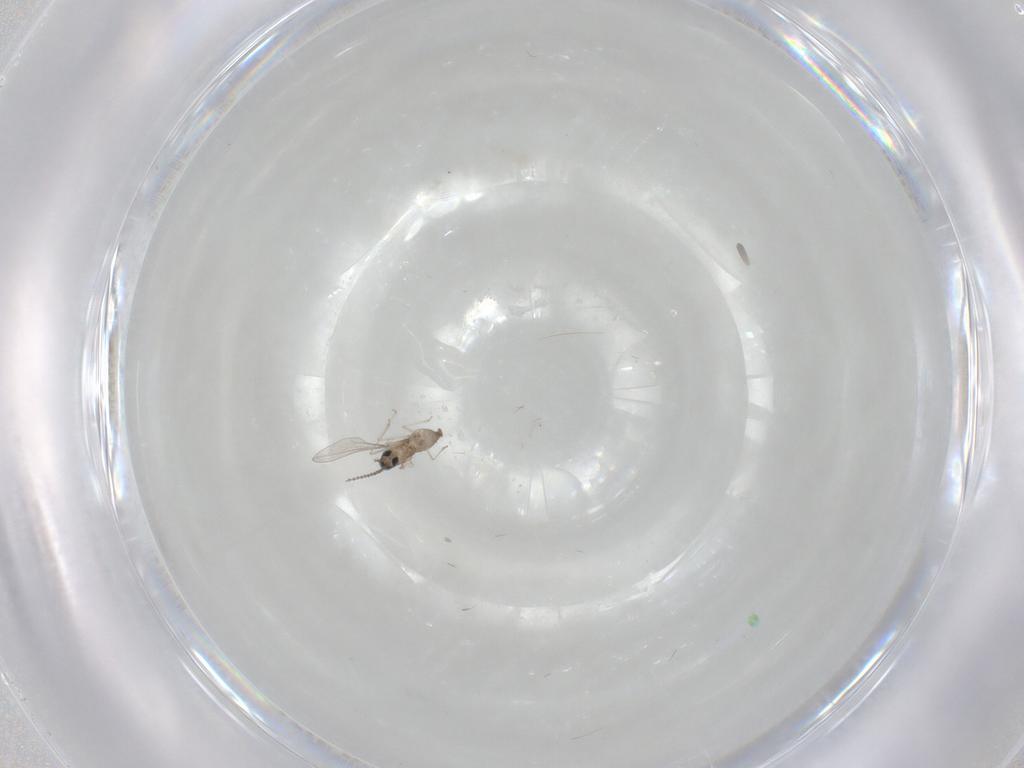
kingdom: Animalia
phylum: Arthropoda
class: Insecta
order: Diptera
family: Cecidomyiidae
